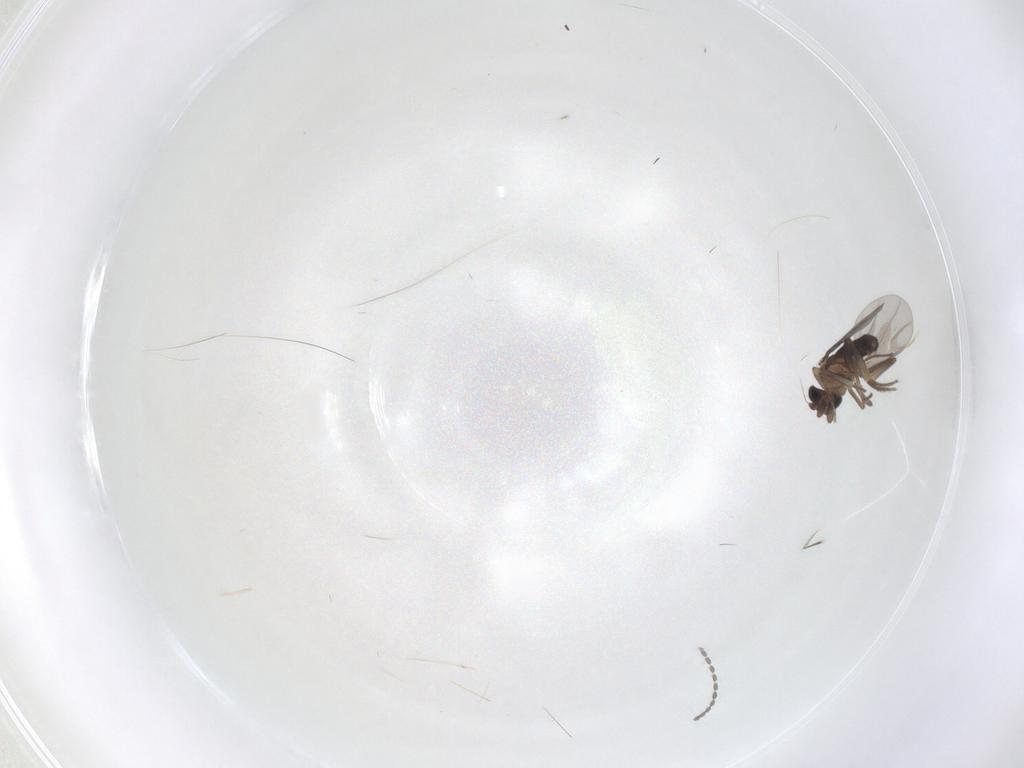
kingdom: Animalia
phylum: Arthropoda
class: Insecta
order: Diptera
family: Cecidomyiidae
